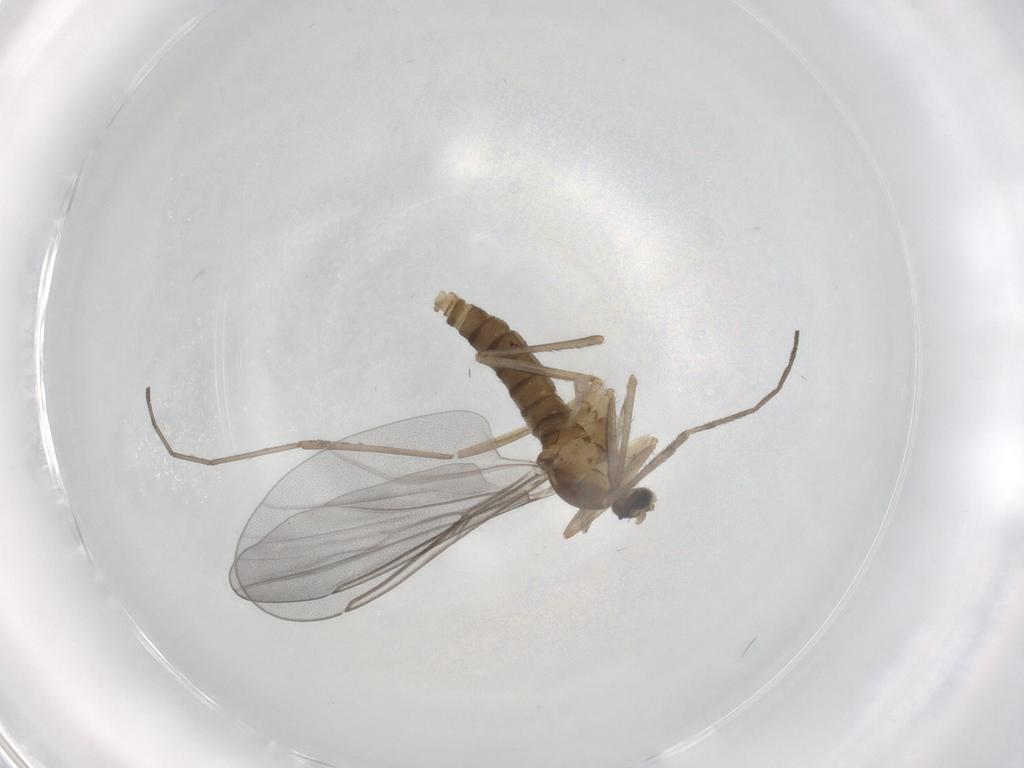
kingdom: Animalia
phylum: Arthropoda
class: Insecta
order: Diptera
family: Cecidomyiidae
